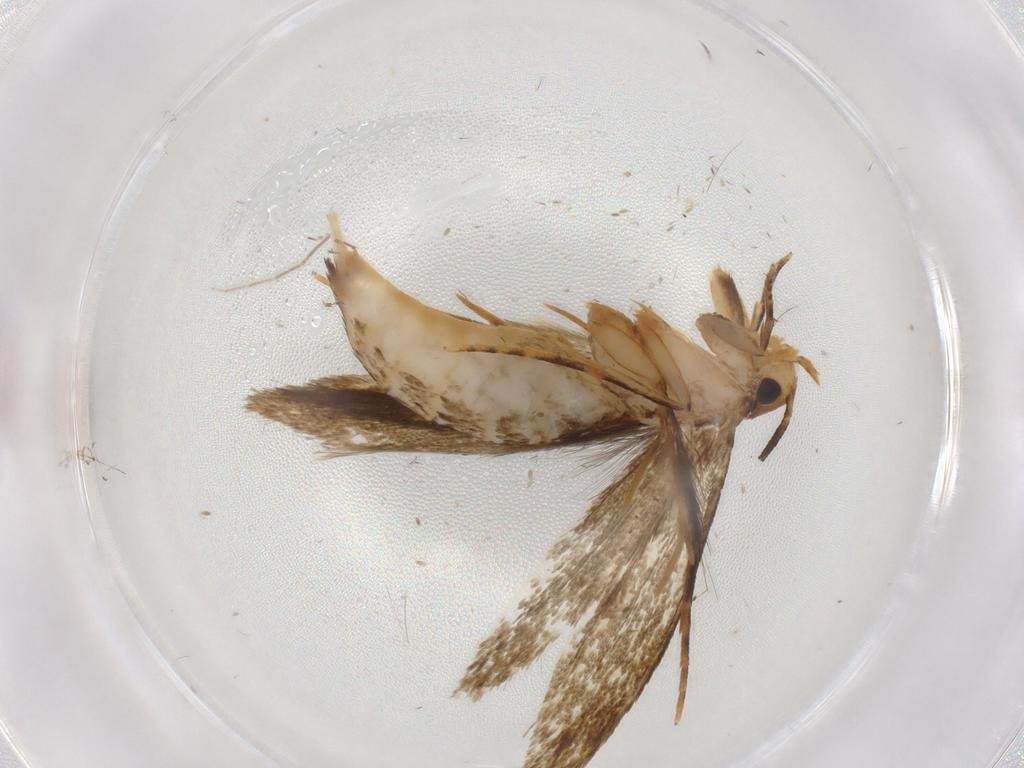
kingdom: Animalia
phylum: Arthropoda
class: Insecta
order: Lepidoptera
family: Tineidae
